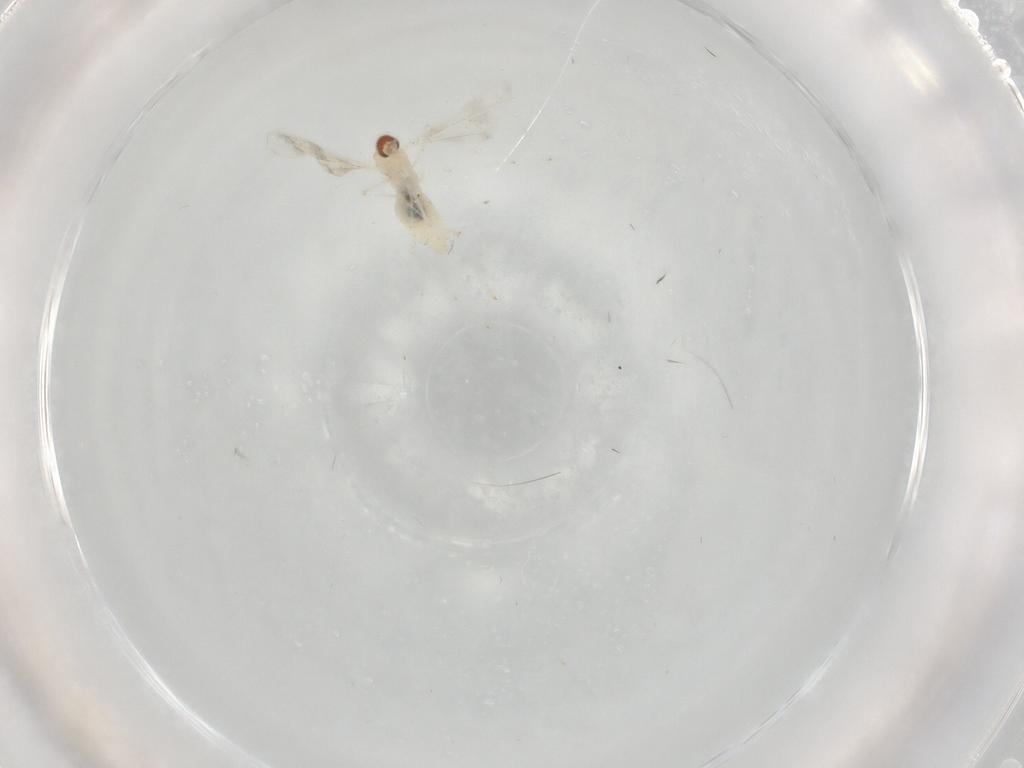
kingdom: Animalia
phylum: Arthropoda
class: Insecta
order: Diptera
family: Cecidomyiidae
